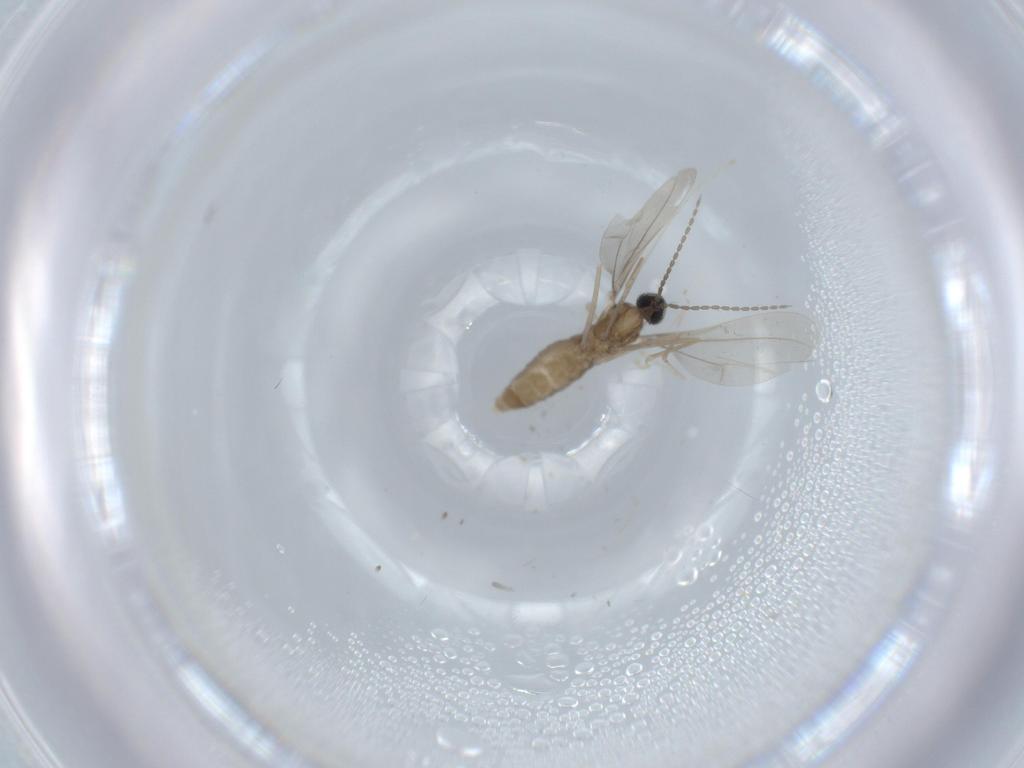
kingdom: Animalia
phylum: Arthropoda
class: Insecta
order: Diptera
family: Cecidomyiidae
